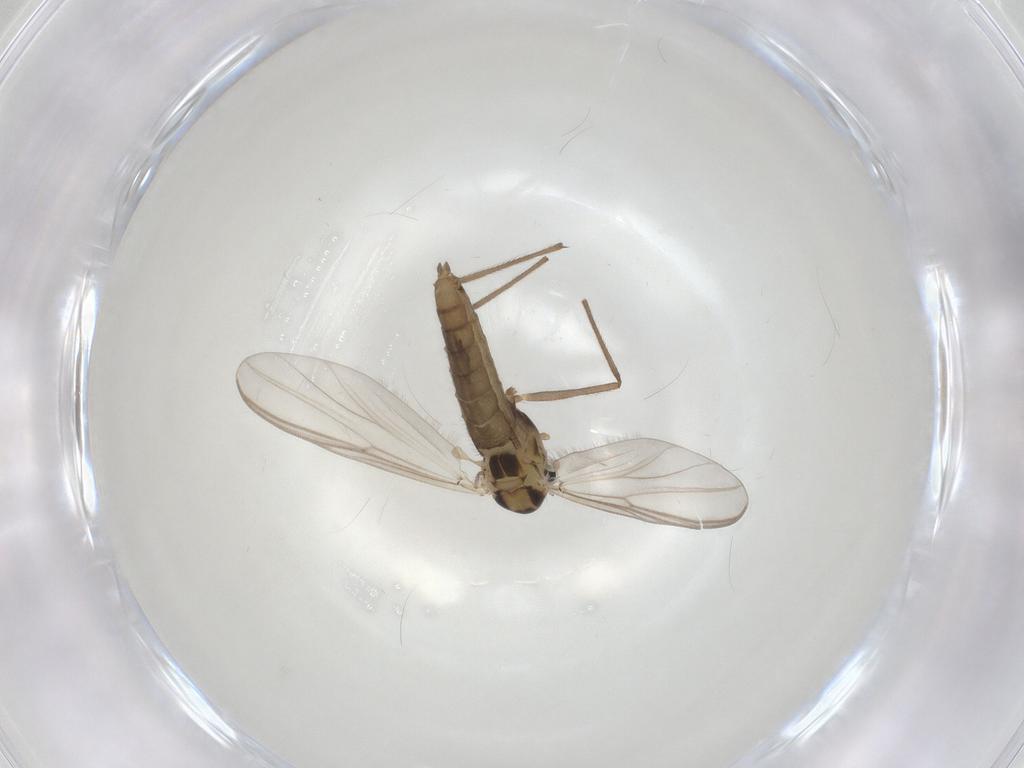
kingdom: Animalia
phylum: Arthropoda
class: Insecta
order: Diptera
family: Chironomidae
